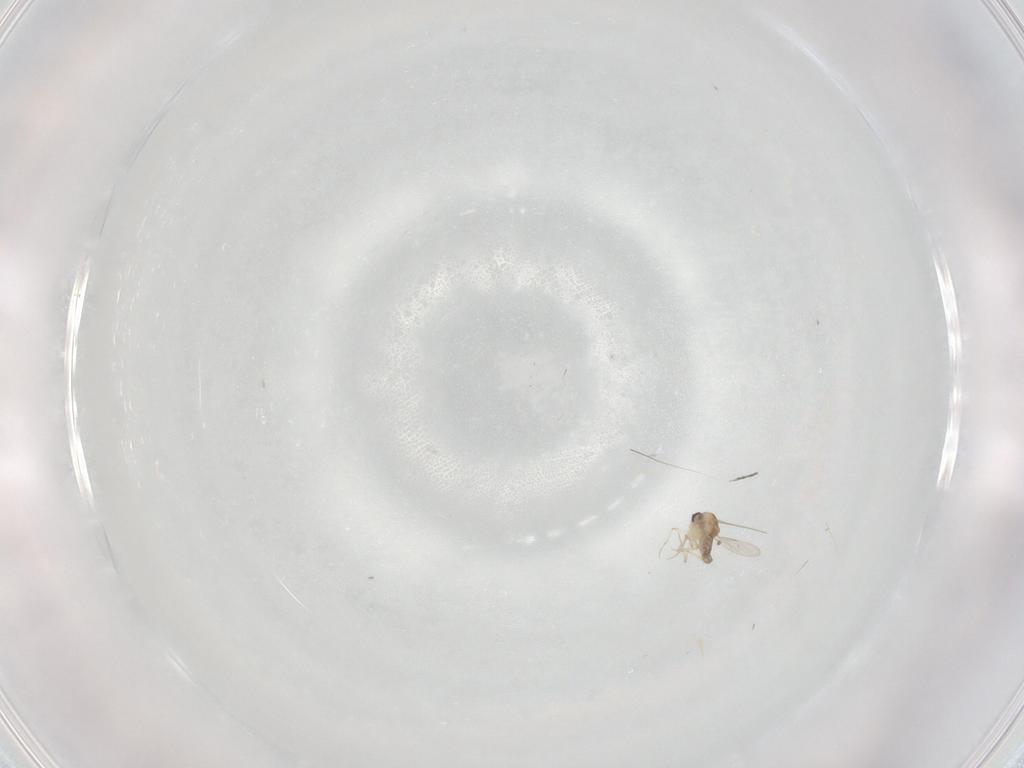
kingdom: Animalia
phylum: Arthropoda
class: Insecta
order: Diptera
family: Ceratopogonidae
